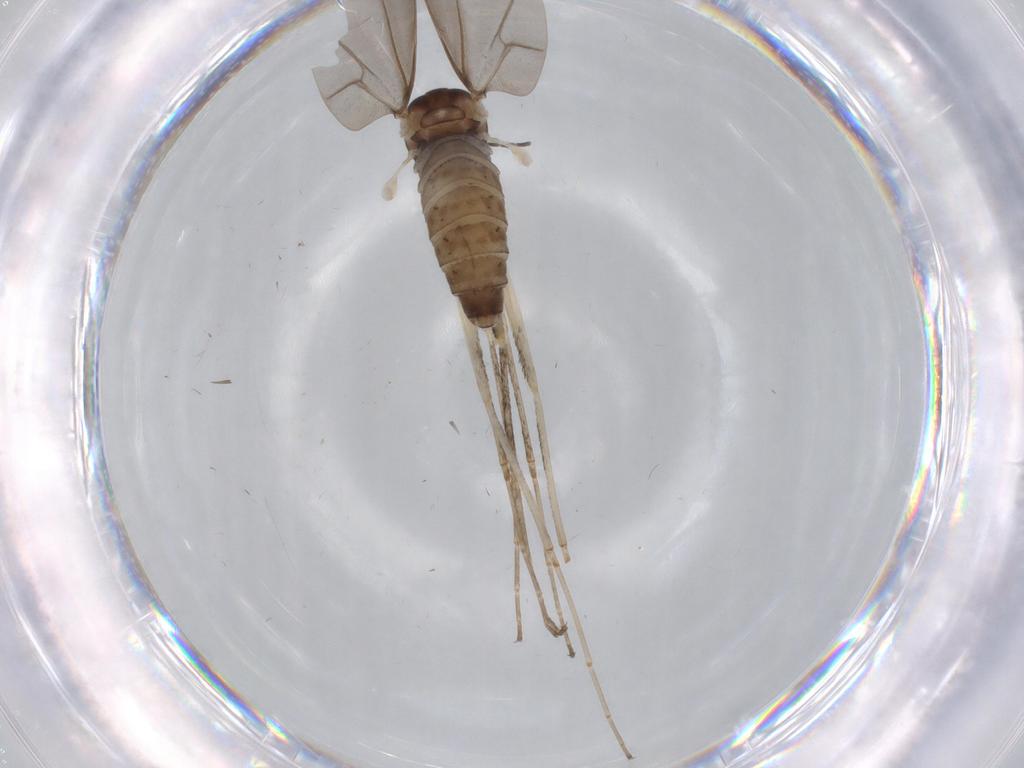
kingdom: Animalia
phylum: Arthropoda
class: Insecta
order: Diptera
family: Cecidomyiidae
